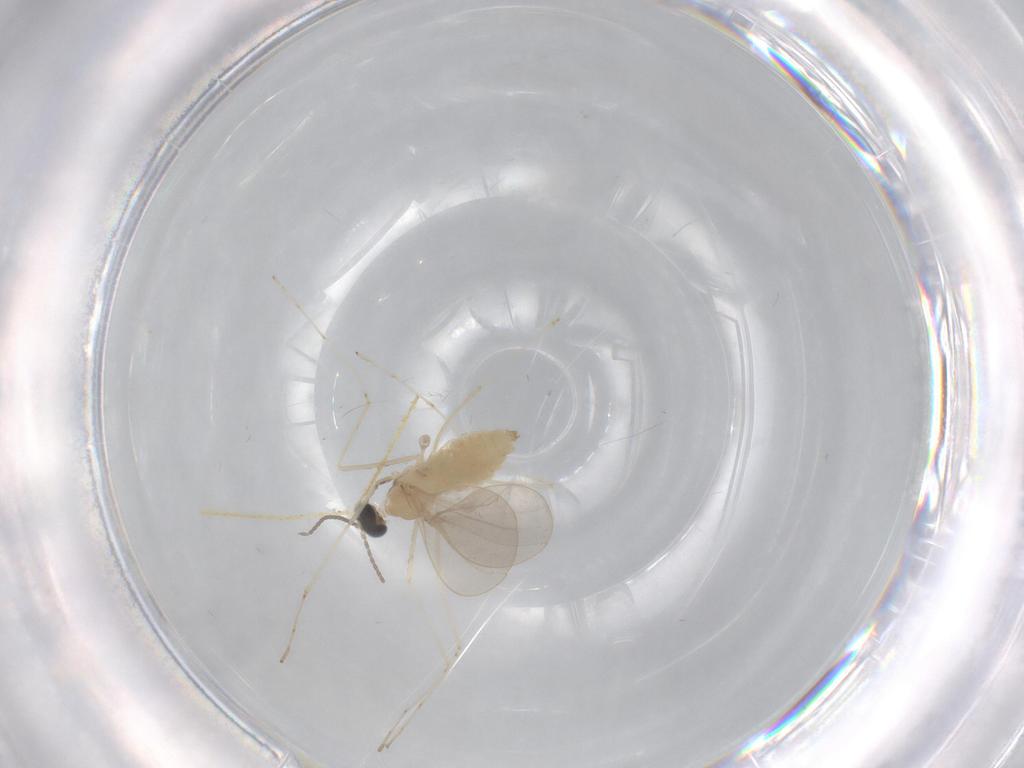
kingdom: Animalia
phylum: Arthropoda
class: Insecta
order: Diptera
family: Cecidomyiidae
